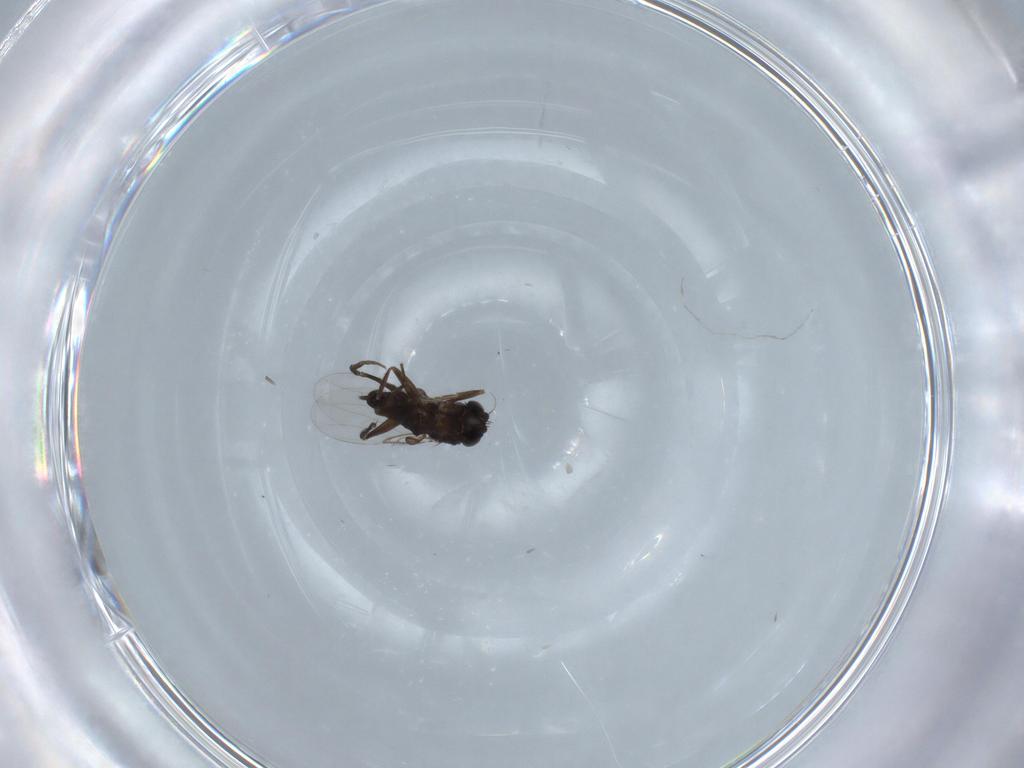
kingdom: Animalia
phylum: Arthropoda
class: Insecta
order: Diptera
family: Phoridae
